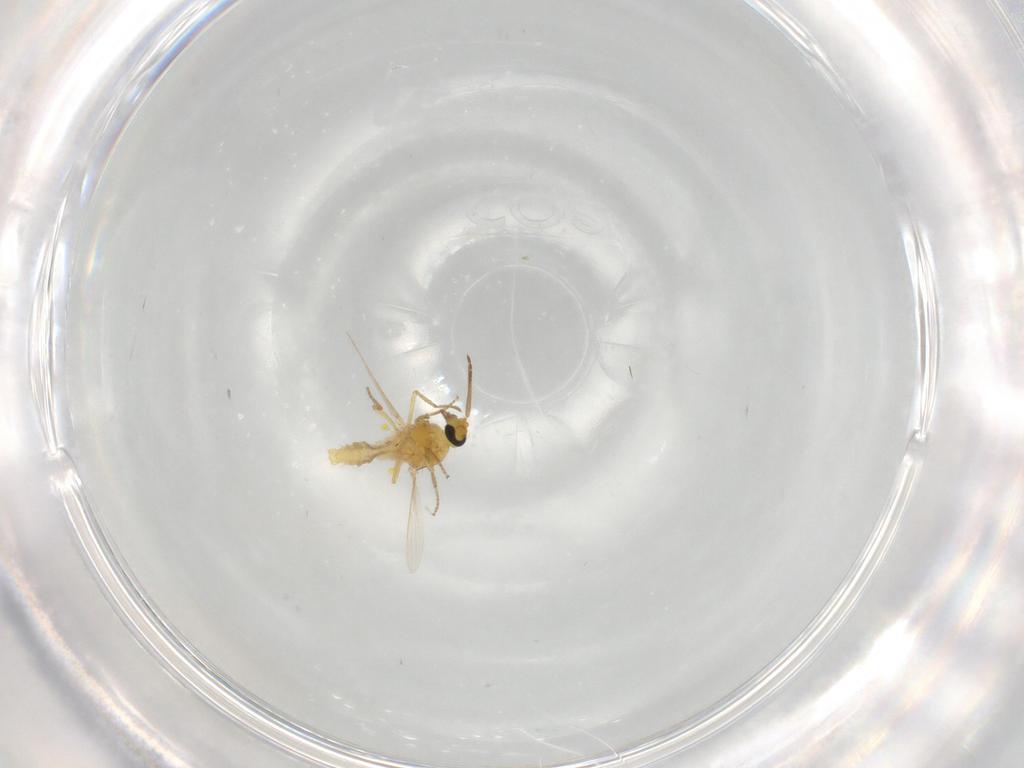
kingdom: Animalia
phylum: Arthropoda
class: Insecta
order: Diptera
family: Ceratopogonidae
